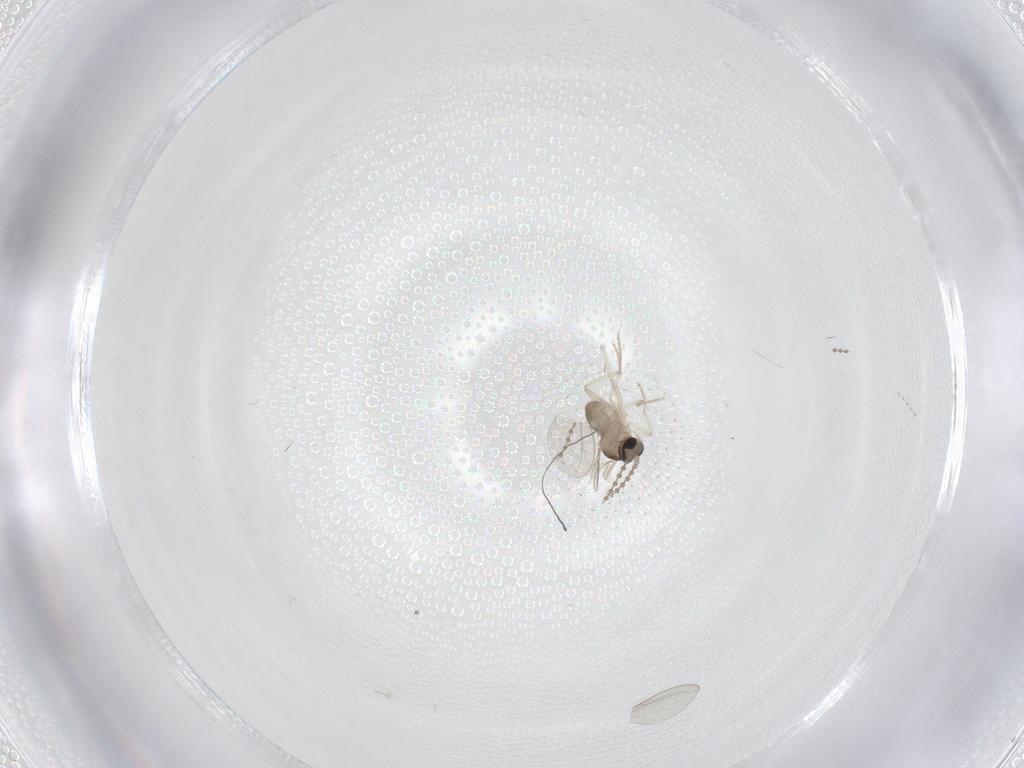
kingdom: Animalia
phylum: Arthropoda
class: Insecta
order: Diptera
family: Cecidomyiidae
